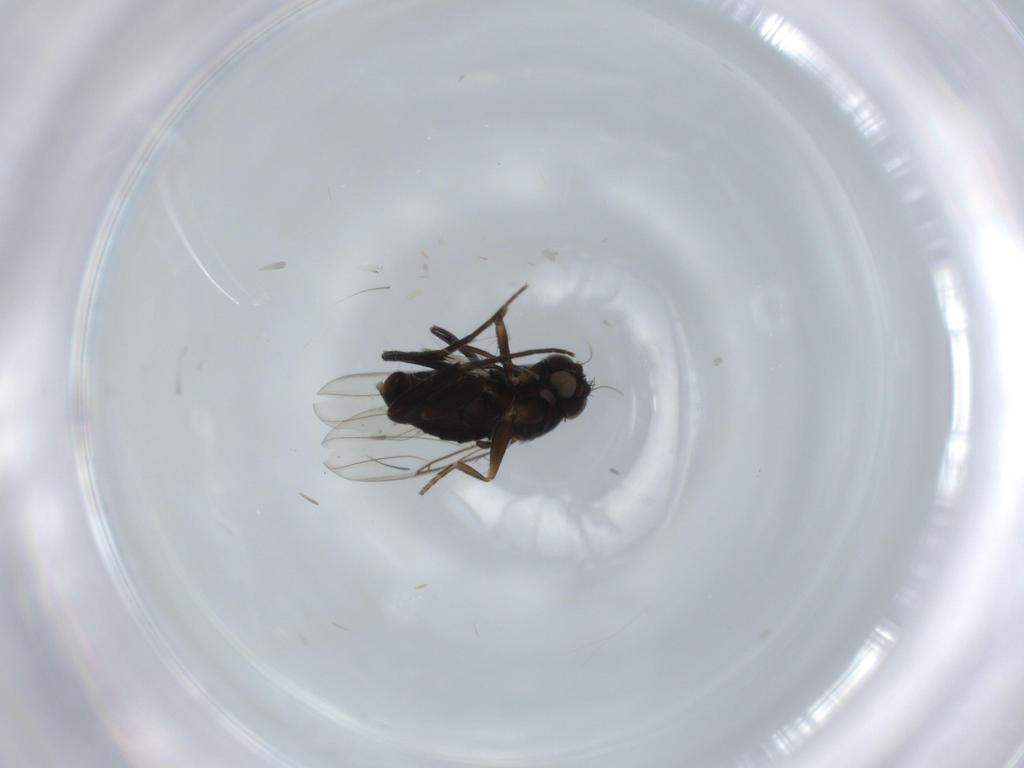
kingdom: Animalia
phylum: Arthropoda
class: Insecta
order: Diptera
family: Phoridae
